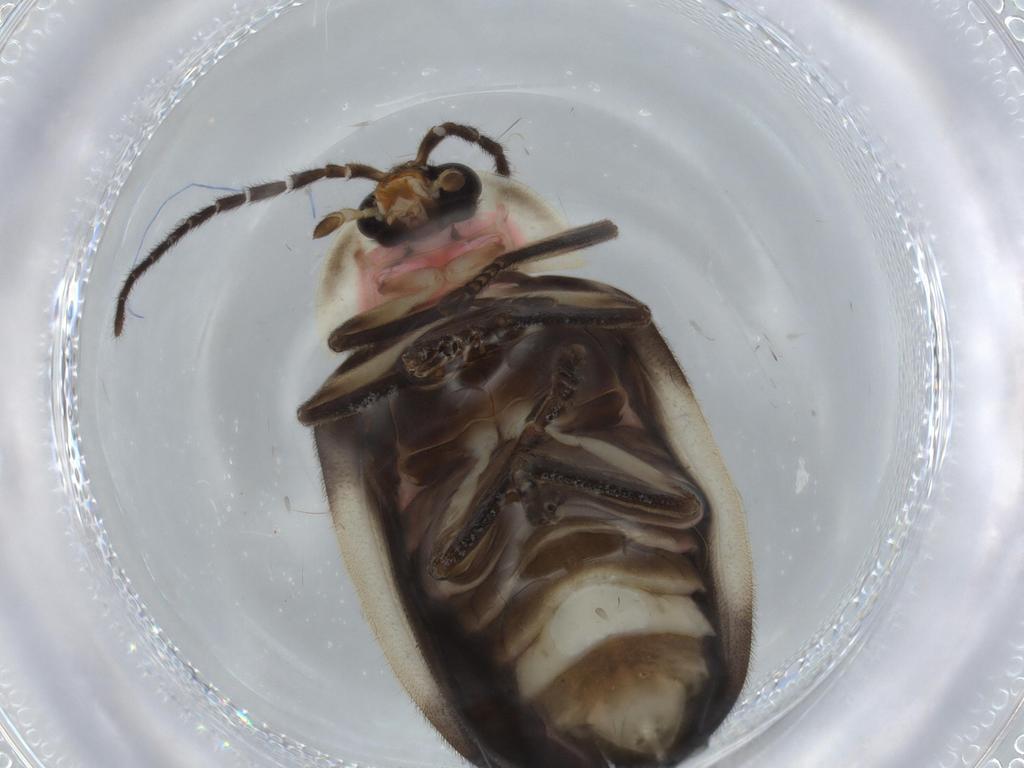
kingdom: Animalia
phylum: Arthropoda
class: Insecta
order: Coleoptera
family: Lampyridae
